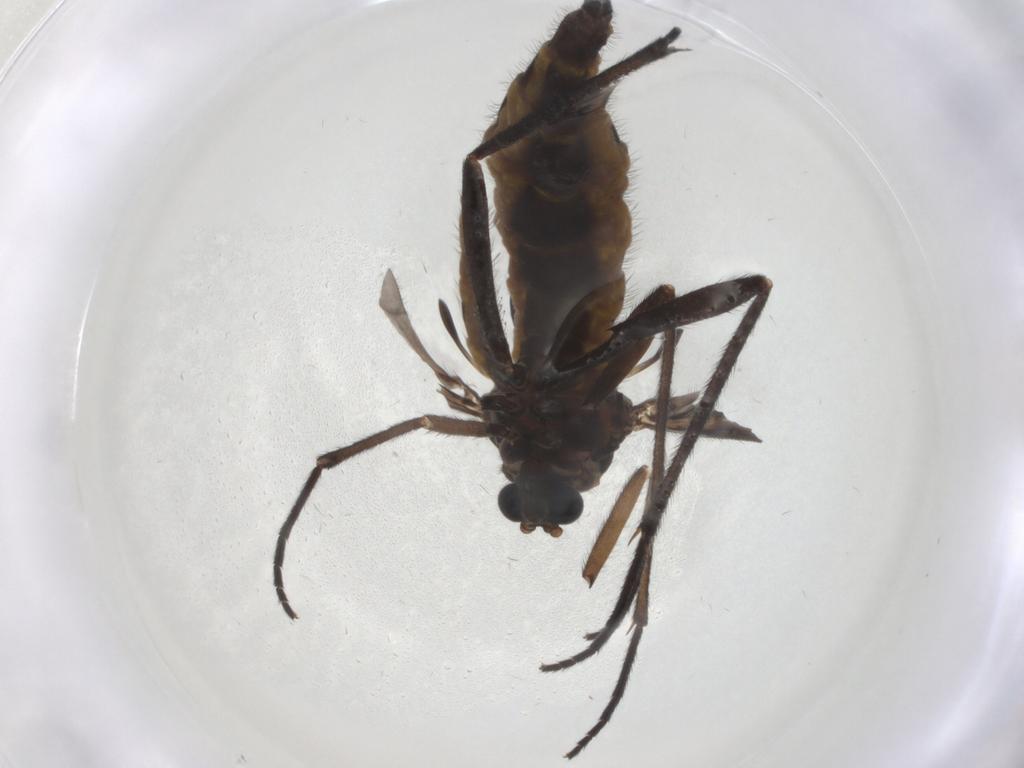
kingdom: Animalia
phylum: Arthropoda
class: Insecta
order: Diptera
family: Sciaridae
